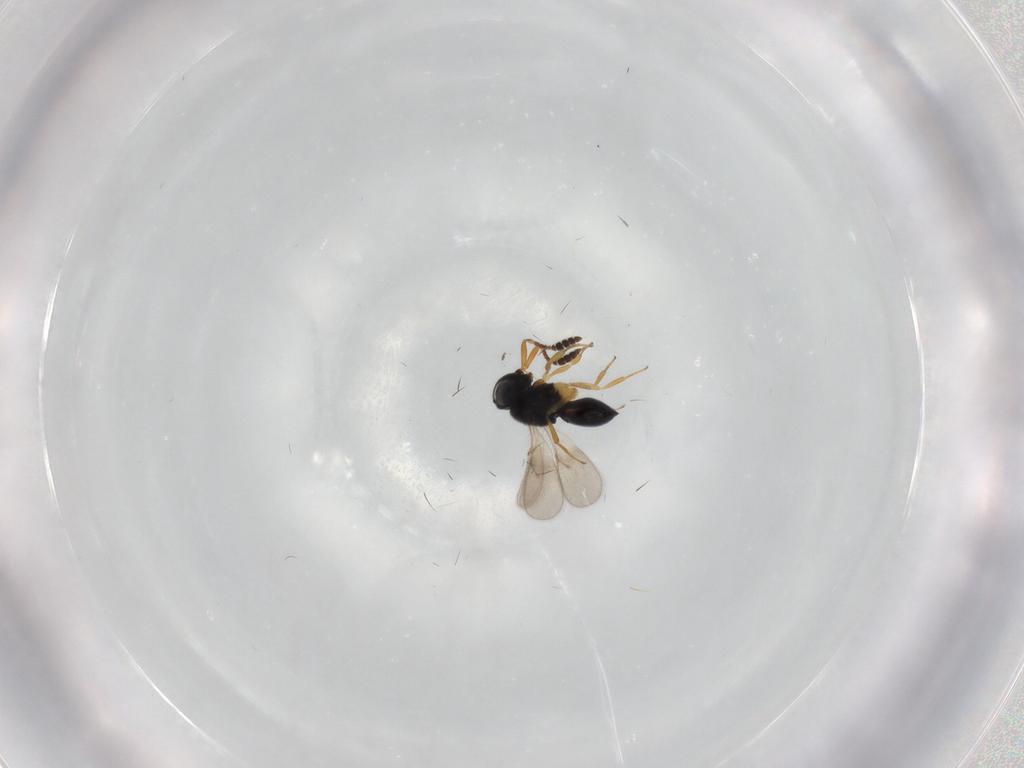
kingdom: Animalia
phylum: Arthropoda
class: Insecta
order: Hymenoptera
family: Scelionidae
